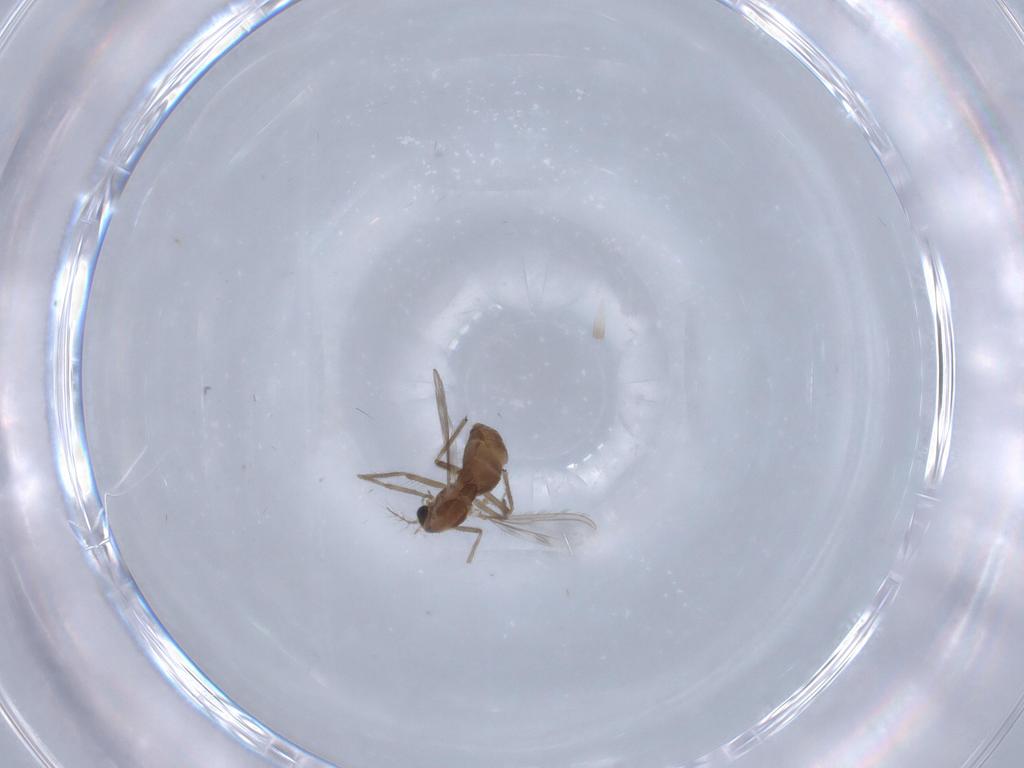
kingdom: Animalia
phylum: Arthropoda
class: Insecta
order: Diptera
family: Chironomidae
